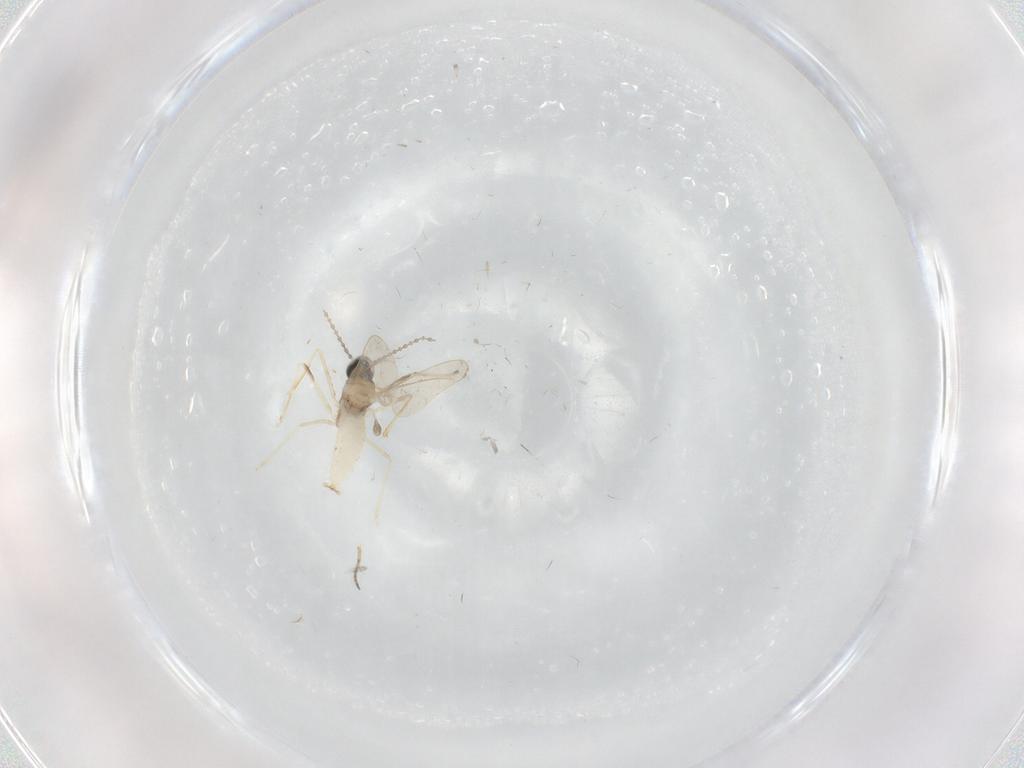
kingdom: Animalia
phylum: Arthropoda
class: Insecta
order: Diptera
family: Cecidomyiidae
